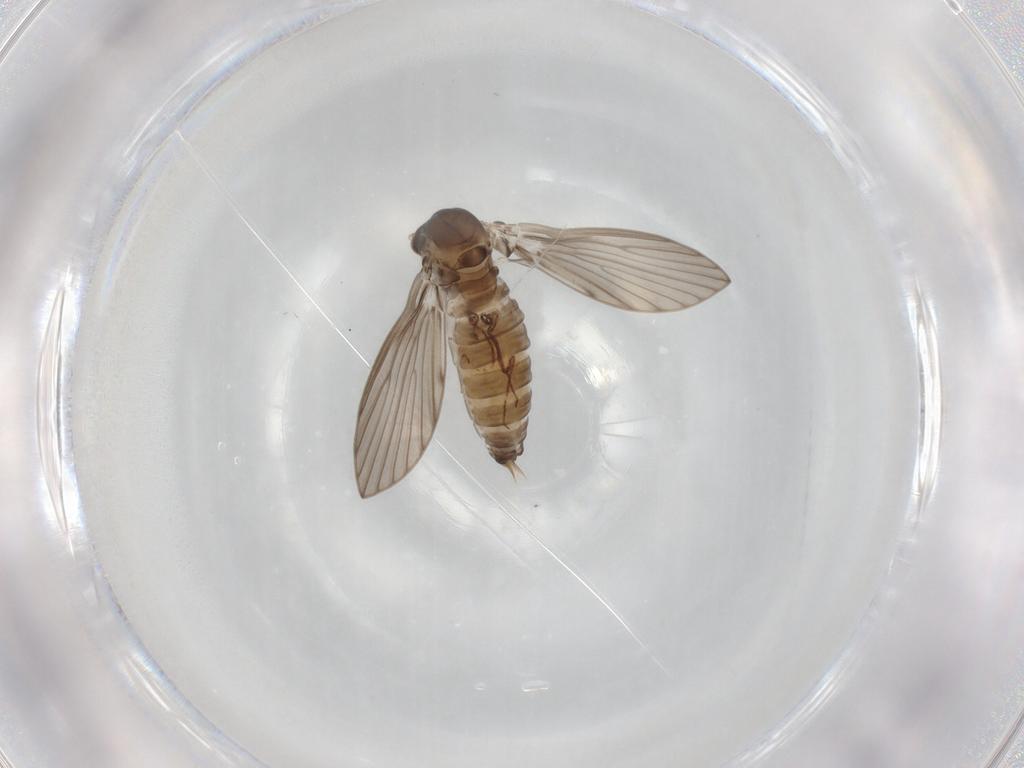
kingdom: Animalia
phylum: Arthropoda
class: Insecta
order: Diptera
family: Psychodidae
